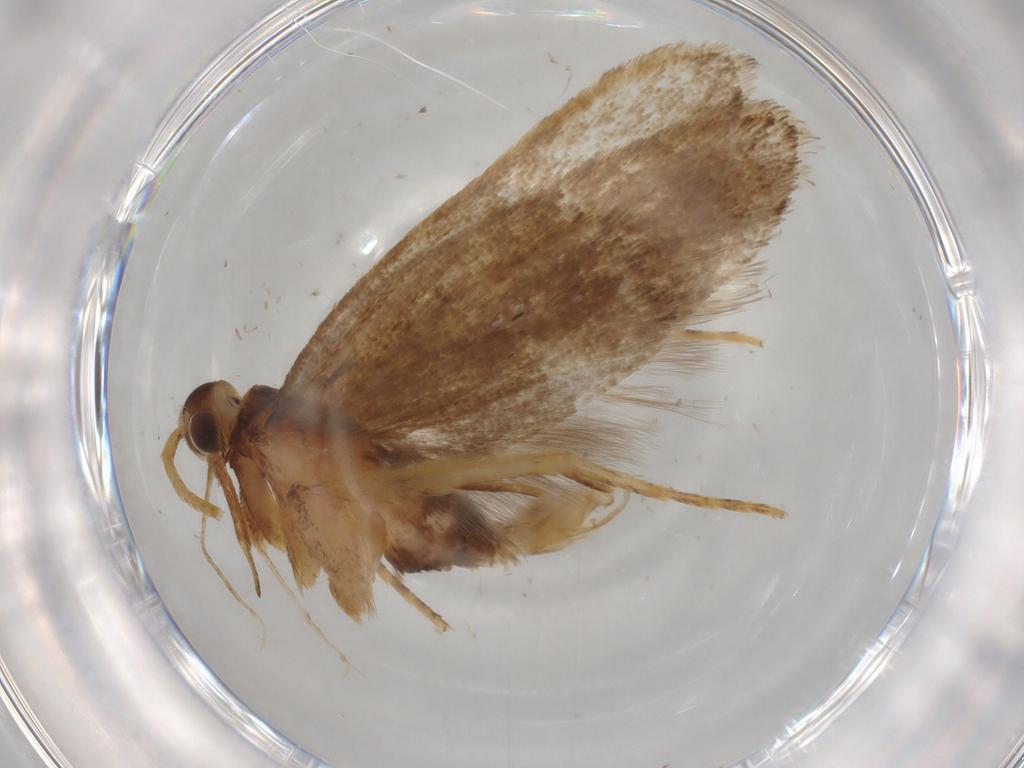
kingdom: Animalia
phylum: Arthropoda
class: Insecta
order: Lepidoptera
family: Lecithoceridae
